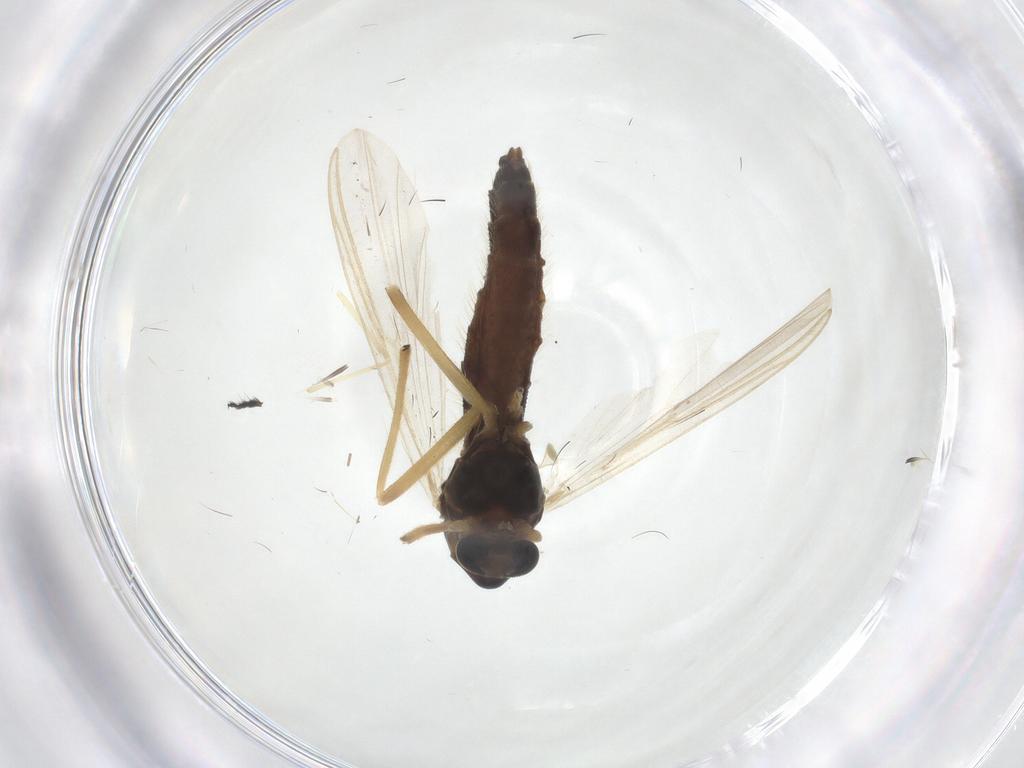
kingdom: Animalia
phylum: Arthropoda
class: Insecta
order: Diptera
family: Chironomidae
